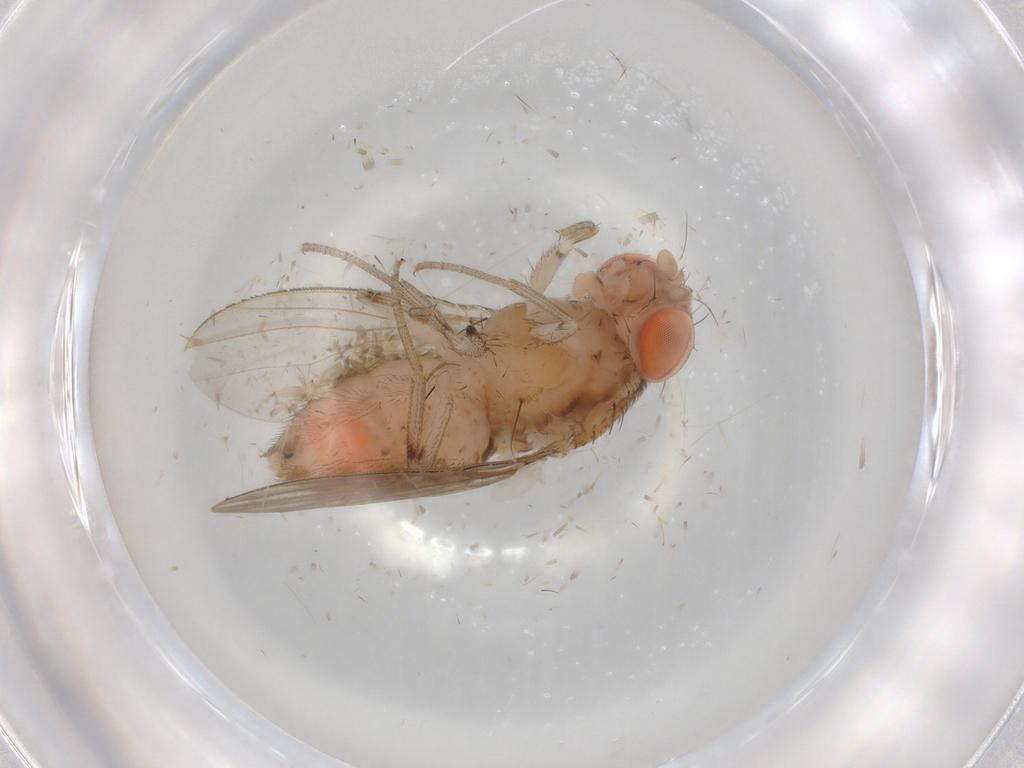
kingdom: Animalia
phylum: Arthropoda
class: Insecta
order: Diptera
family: Drosophilidae
